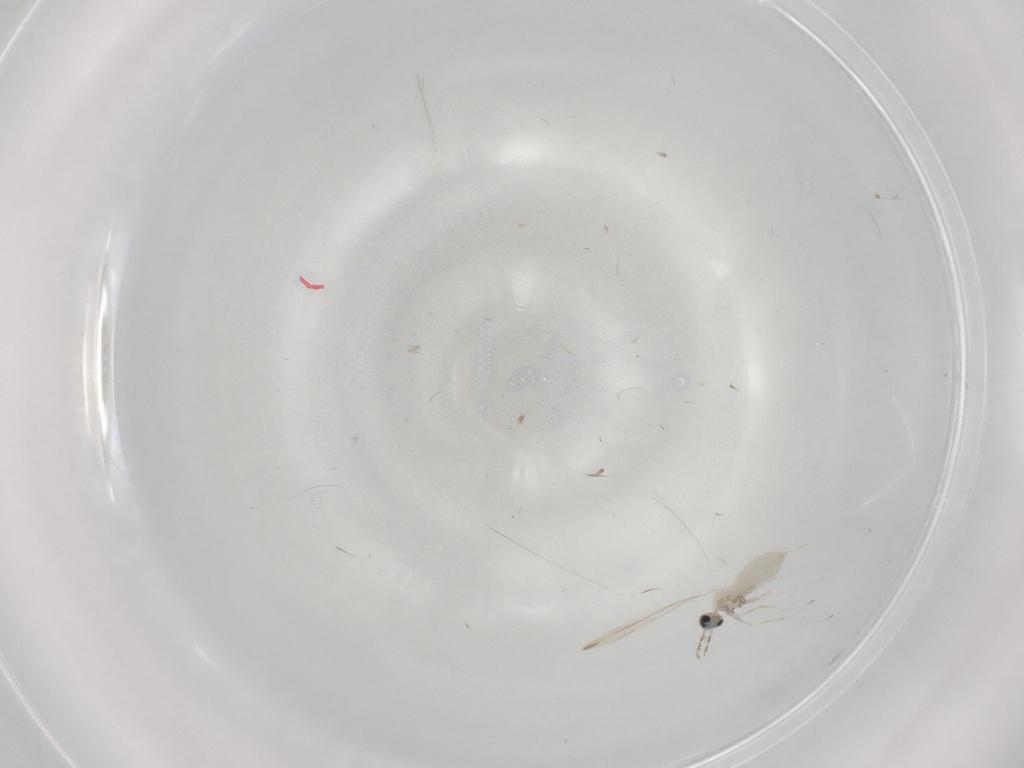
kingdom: Animalia
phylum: Arthropoda
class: Insecta
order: Diptera
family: Cecidomyiidae
